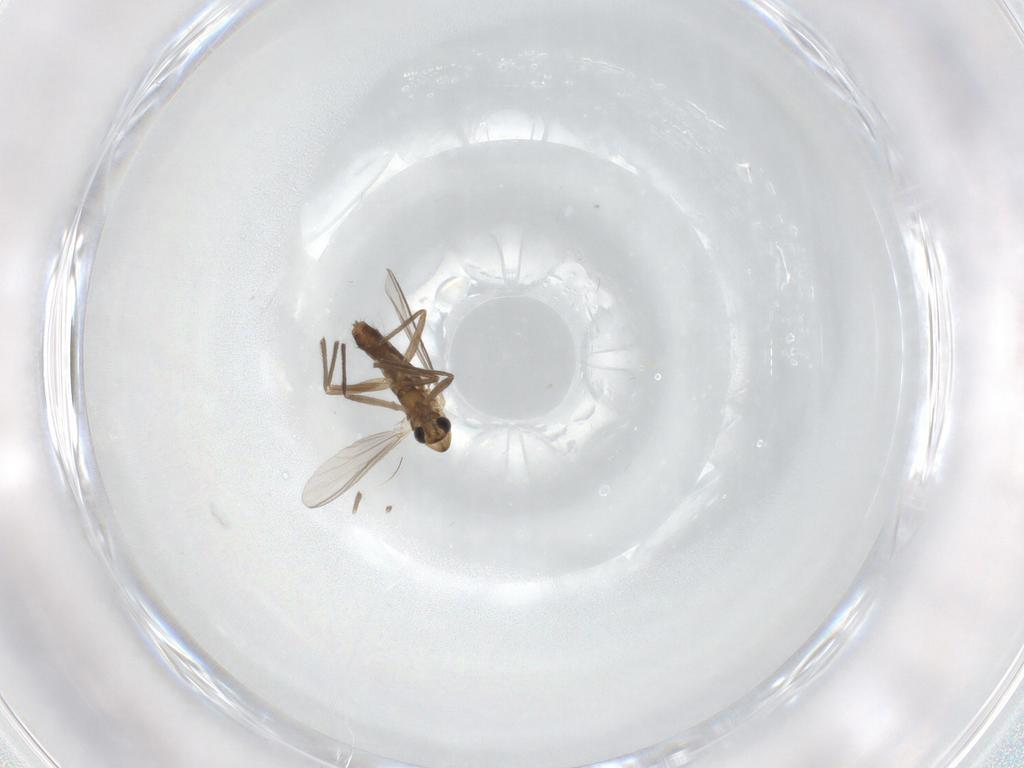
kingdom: Animalia
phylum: Arthropoda
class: Insecta
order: Diptera
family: Chironomidae
